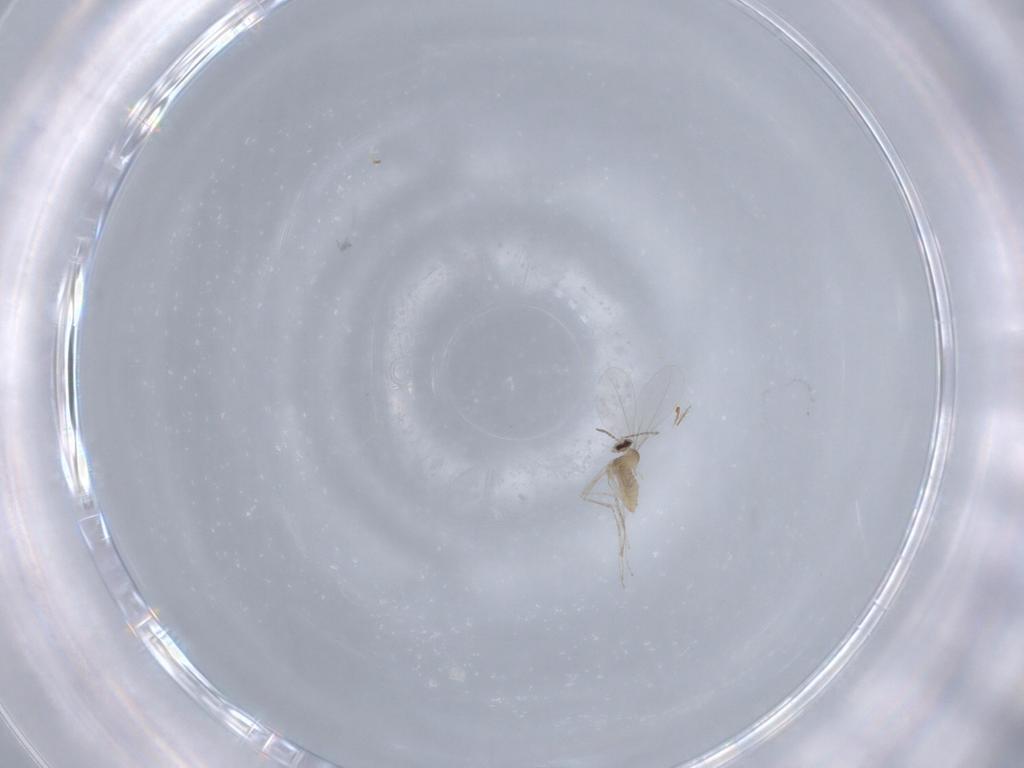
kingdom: Animalia
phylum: Arthropoda
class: Insecta
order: Diptera
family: Cecidomyiidae
